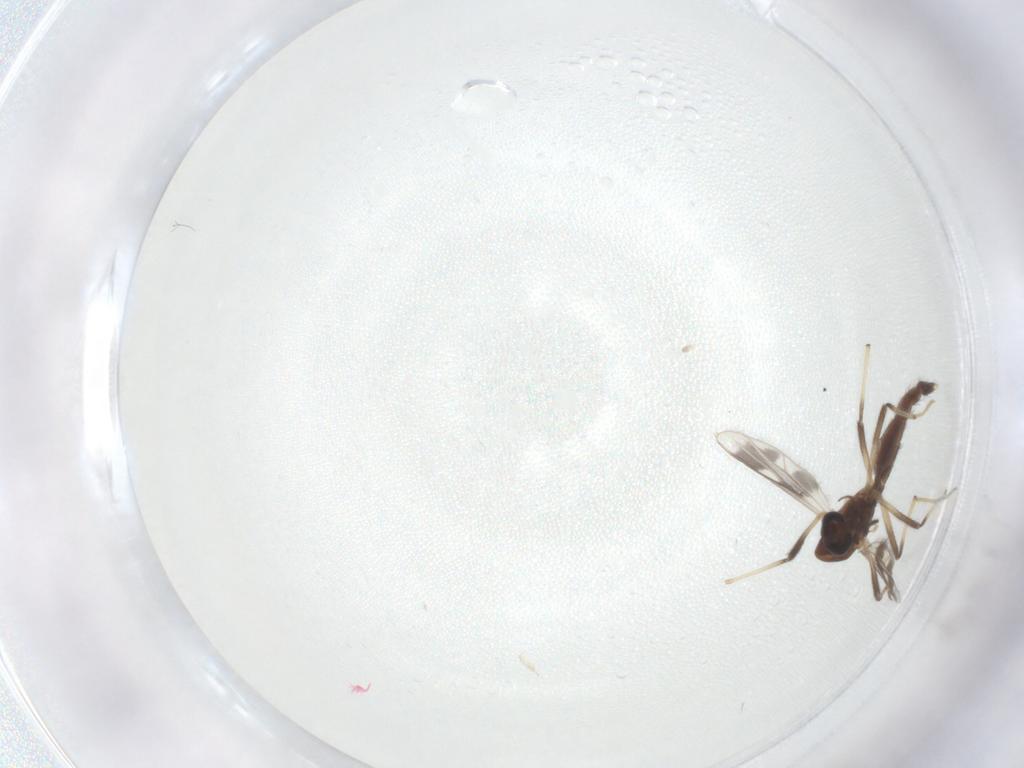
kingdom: Animalia
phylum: Arthropoda
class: Insecta
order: Diptera
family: Chironomidae
